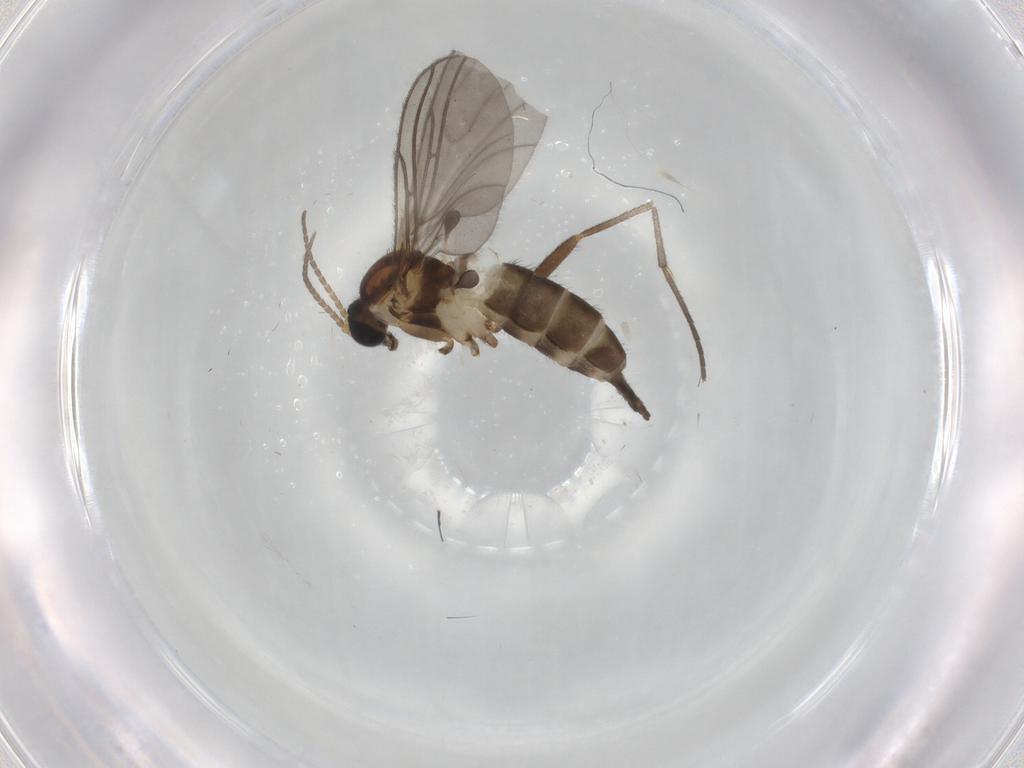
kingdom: Animalia
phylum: Arthropoda
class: Insecta
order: Diptera
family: Sciaridae
